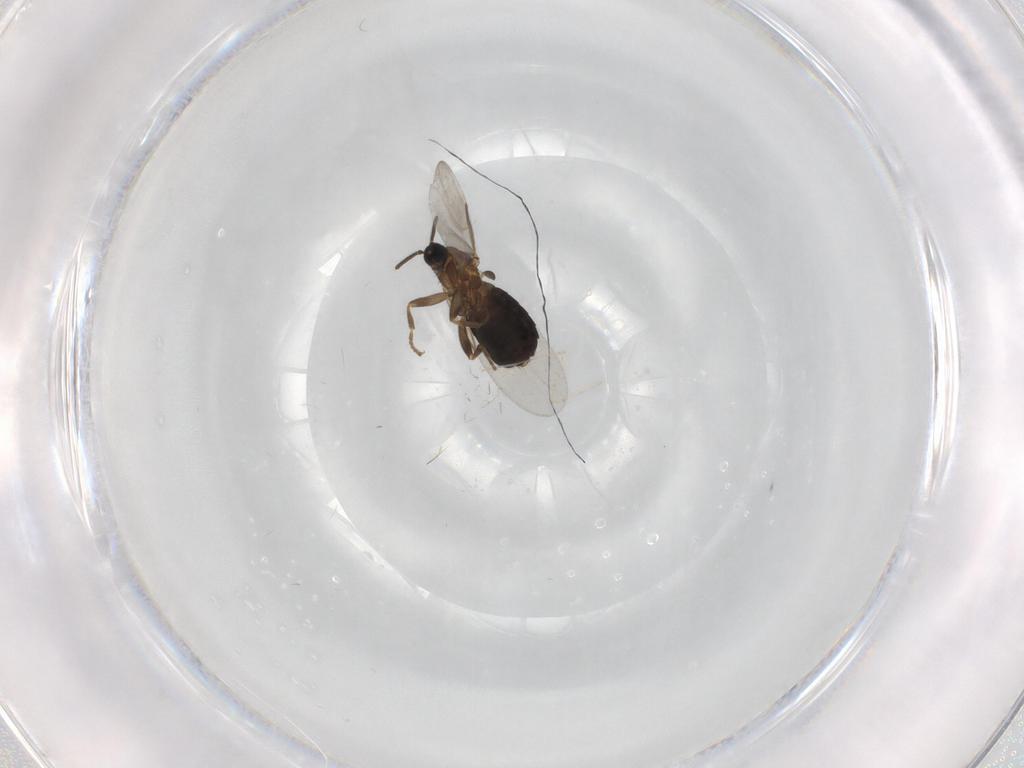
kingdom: Animalia
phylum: Arthropoda
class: Insecta
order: Diptera
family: Scatopsidae
